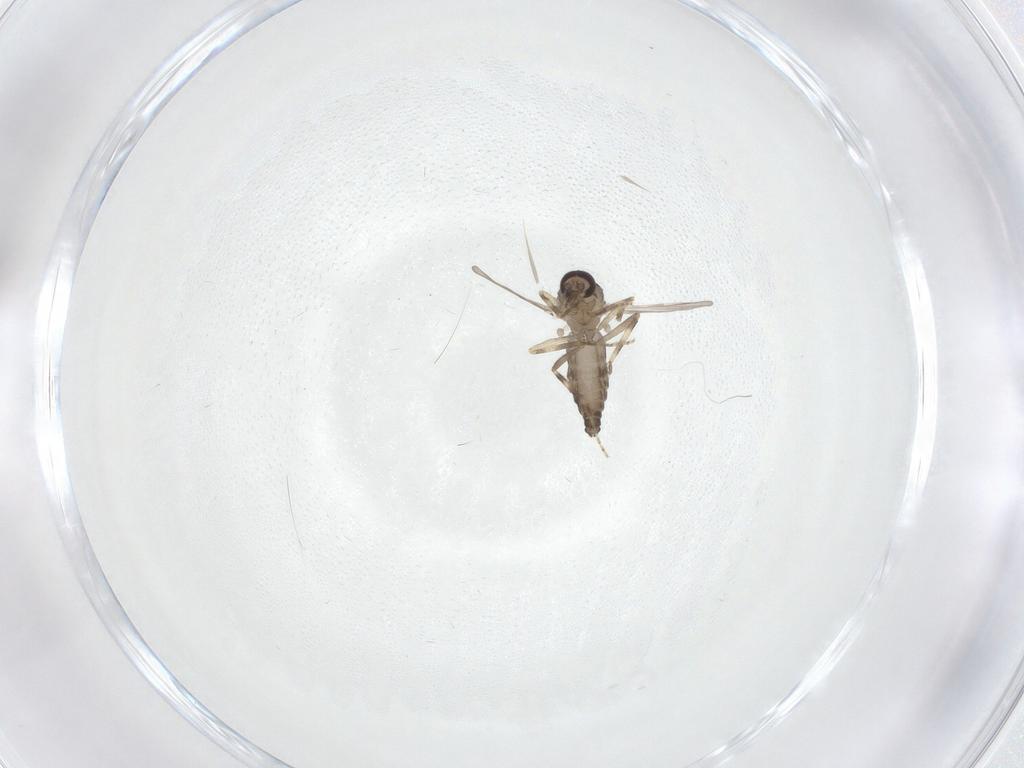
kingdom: Animalia
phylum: Arthropoda
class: Insecta
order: Diptera
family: Ceratopogonidae
